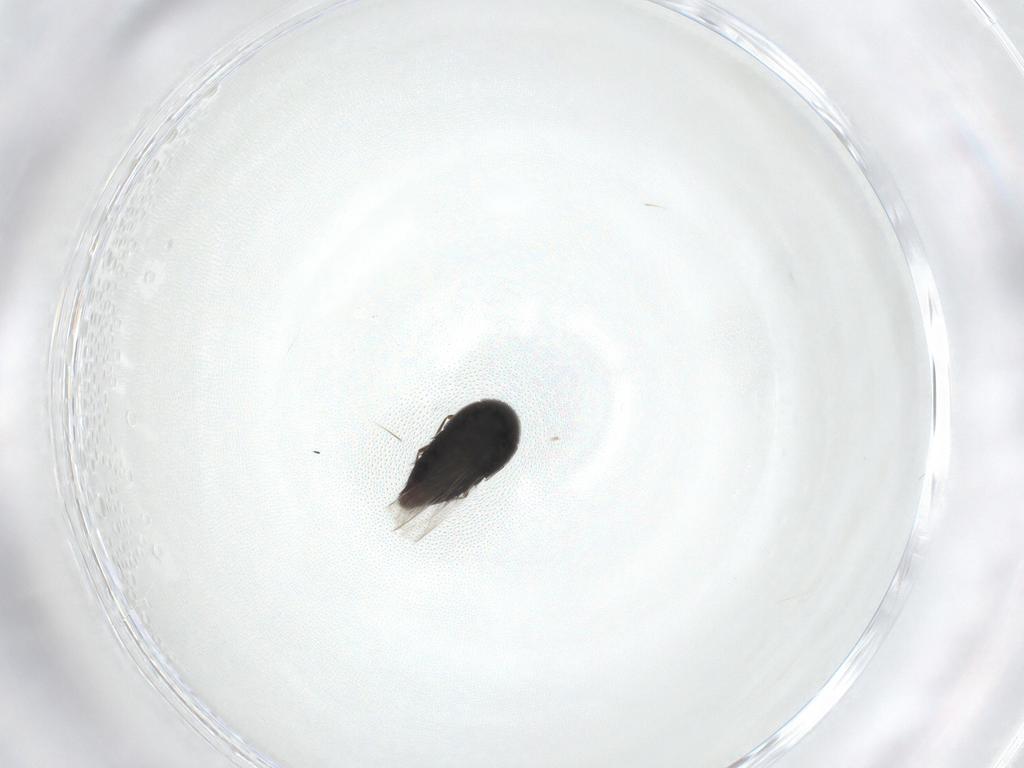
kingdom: Animalia
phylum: Arthropoda
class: Insecta
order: Coleoptera
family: Staphylinidae
